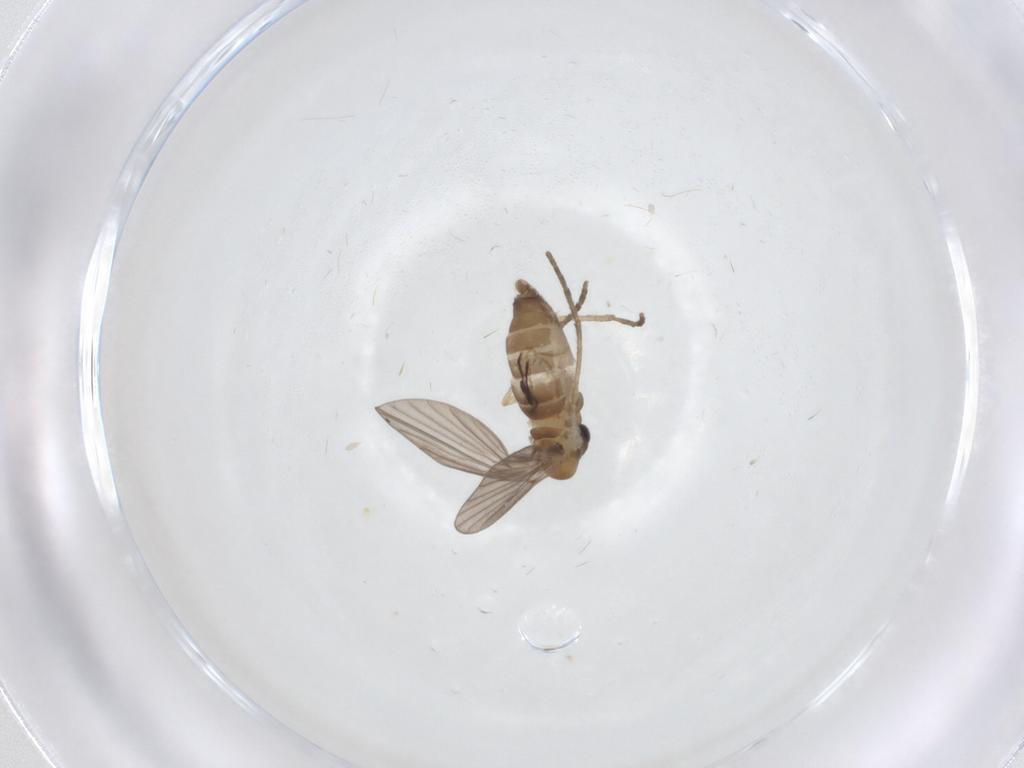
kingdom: Animalia
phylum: Arthropoda
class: Insecta
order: Diptera
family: Cecidomyiidae
